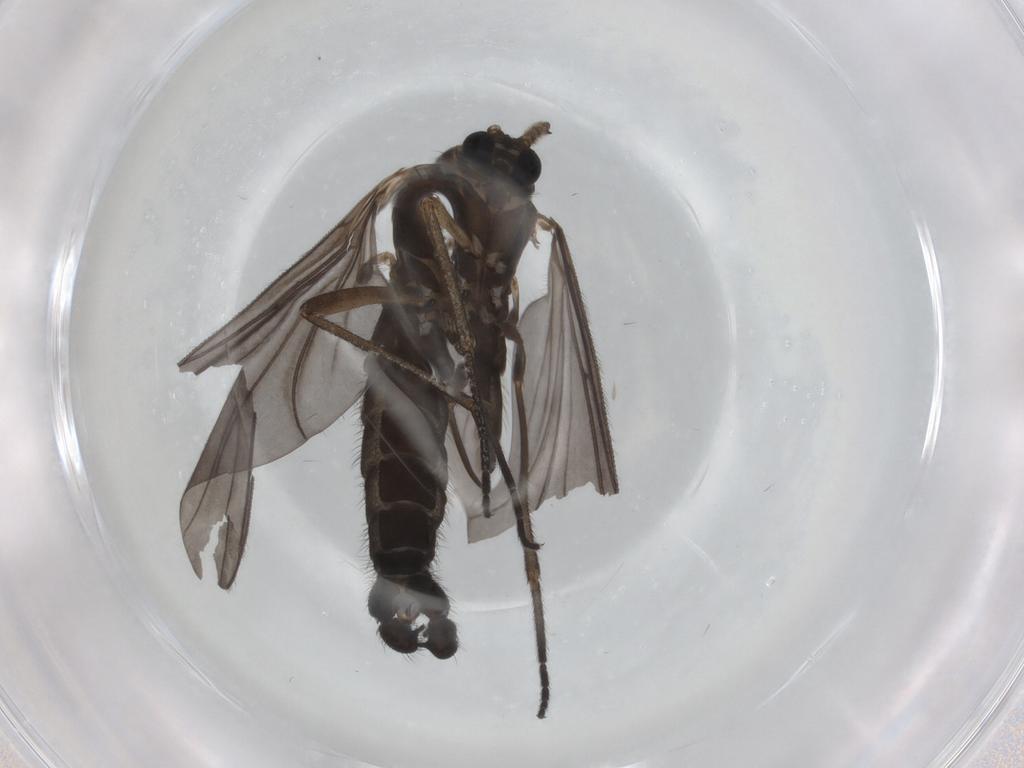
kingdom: Animalia
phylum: Arthropoda
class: Insecta
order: Diptera
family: Sciaridae
